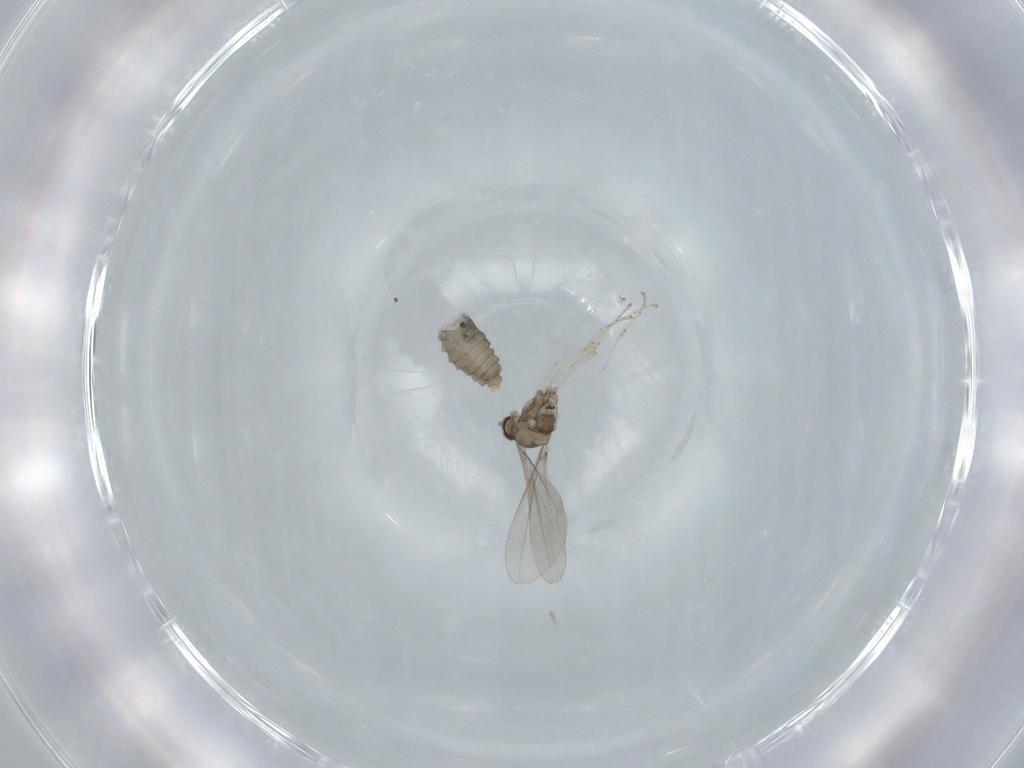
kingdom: Animalia
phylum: Arthropoda
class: Insecta
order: Diptera
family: Cecidomyiidae
